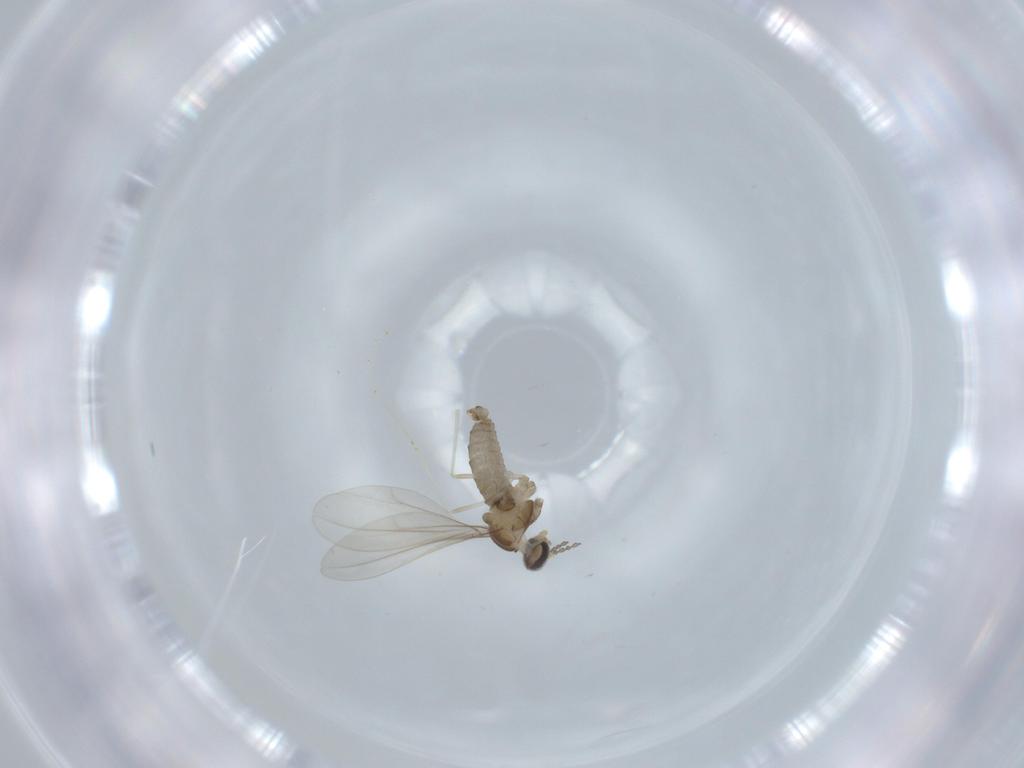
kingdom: Animalia
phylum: Arthropoda
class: Insecta
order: Diptera
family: Cecidomyiidae
